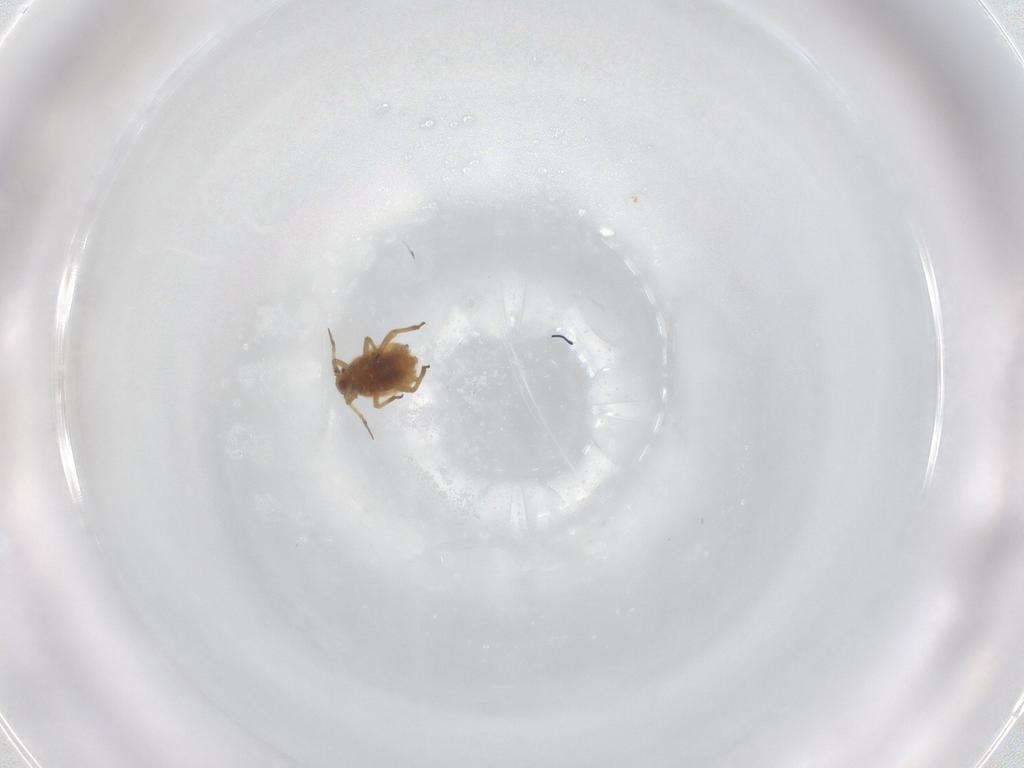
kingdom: Animalia
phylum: Arthropoda
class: Insecta
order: Hemiptera
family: Aphididae
